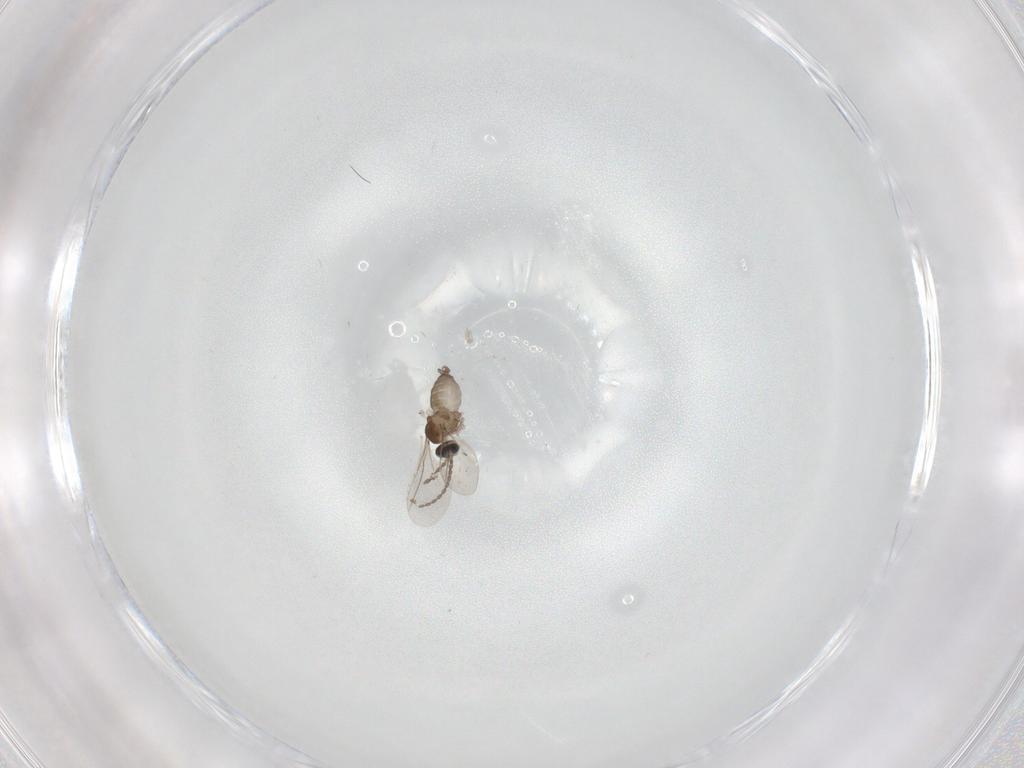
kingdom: Animalia
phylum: Arthropoda
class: Insecta
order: Diptera
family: Cecidomyiidae
